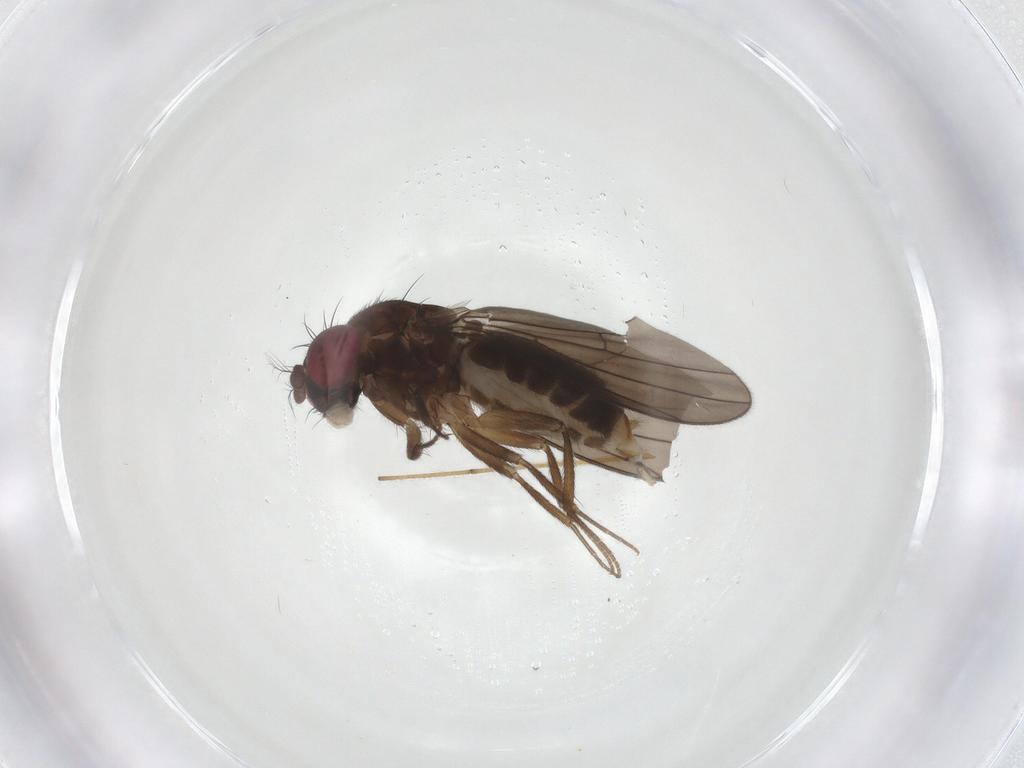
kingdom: Animalia
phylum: Arthropoda
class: Insecta
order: Diptera
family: Drosophilidae
